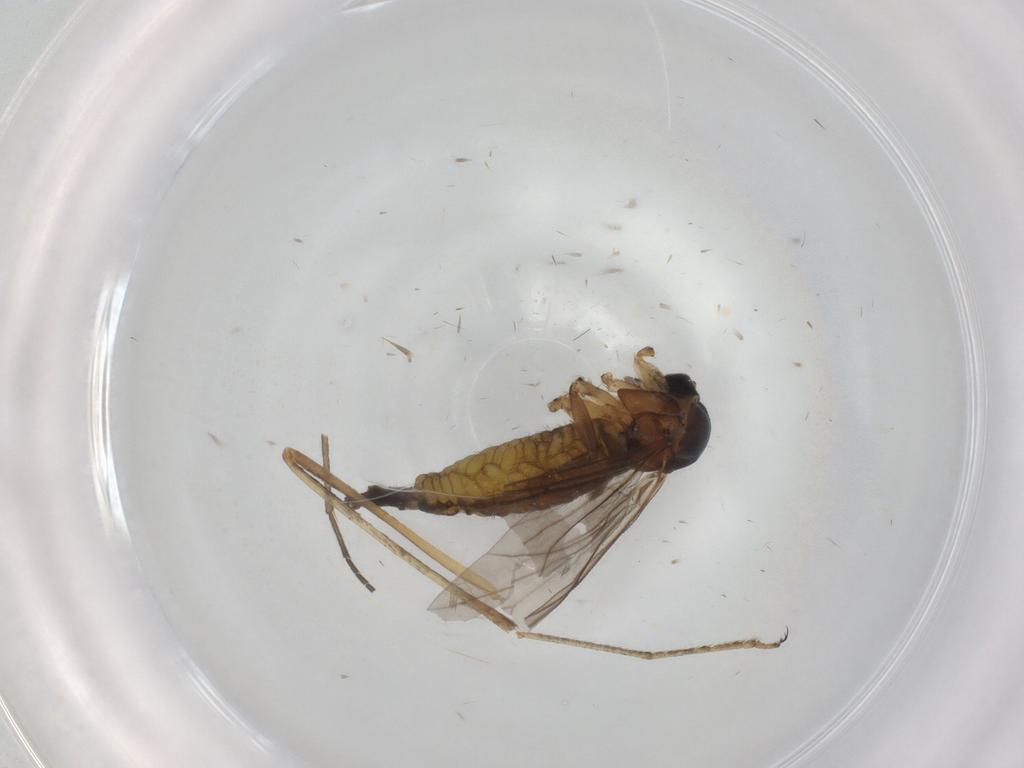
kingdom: Animalia
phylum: Arthropoda
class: Insecta
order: Diptera
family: Sciaridae
